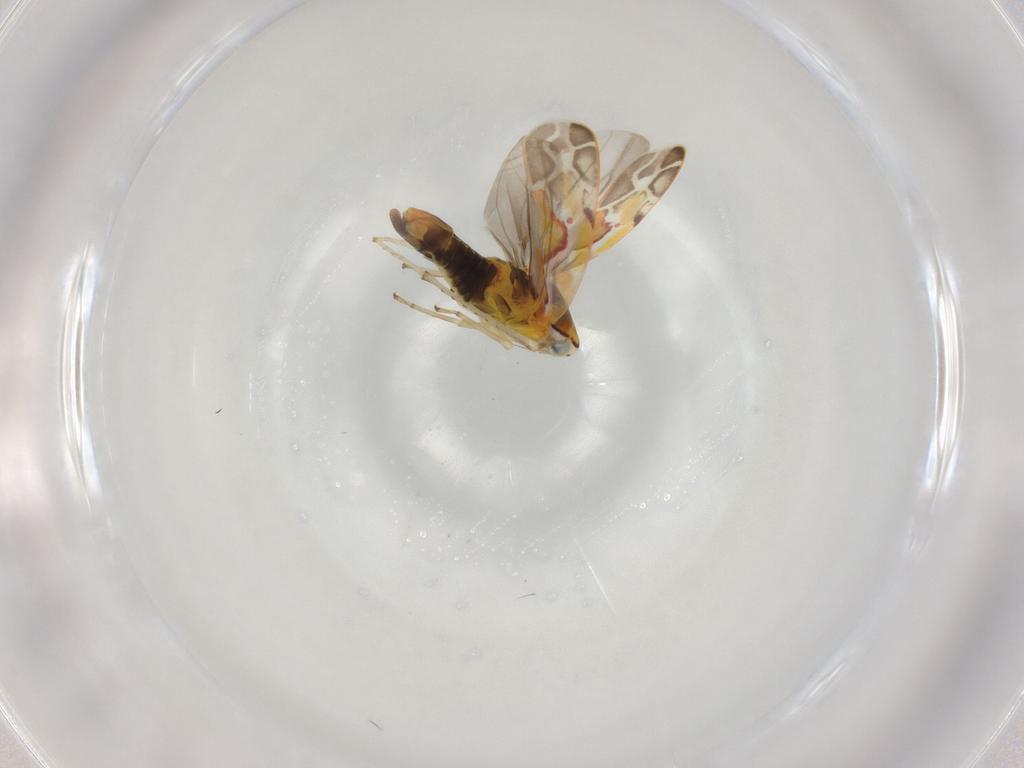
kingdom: Animalia
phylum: Arthropoda
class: Insecta
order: Hemiptera
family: Cicadellidae
